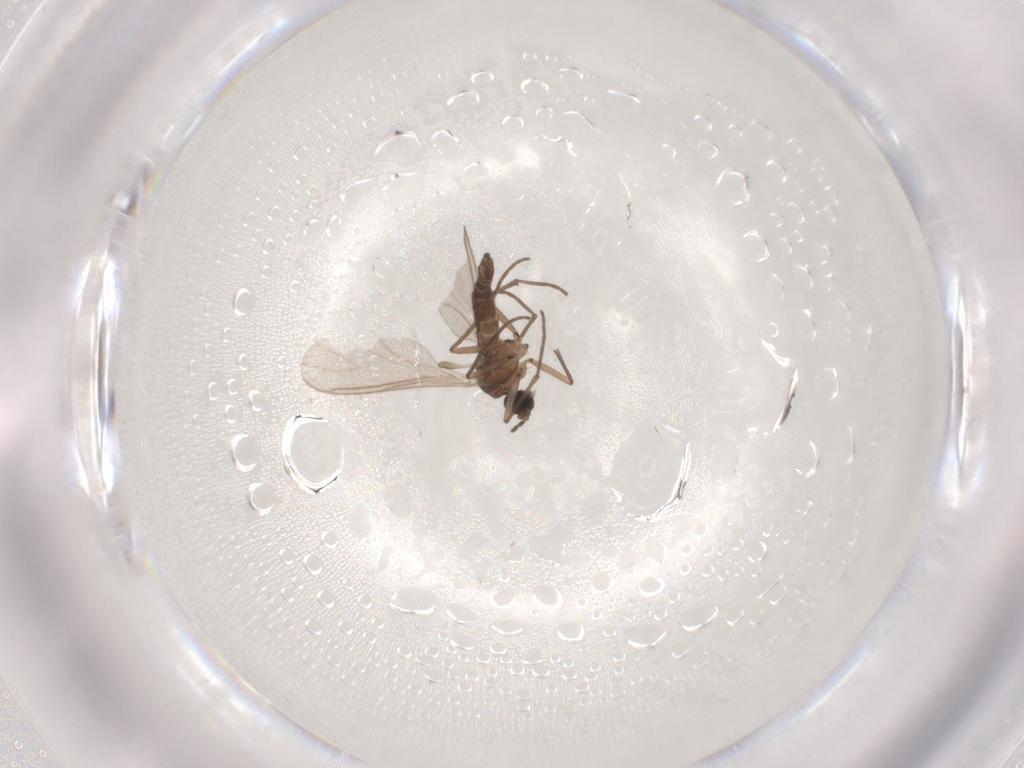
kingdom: Animalia
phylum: Arthropoda
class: Insecta
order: Diptera
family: Sciaridae
